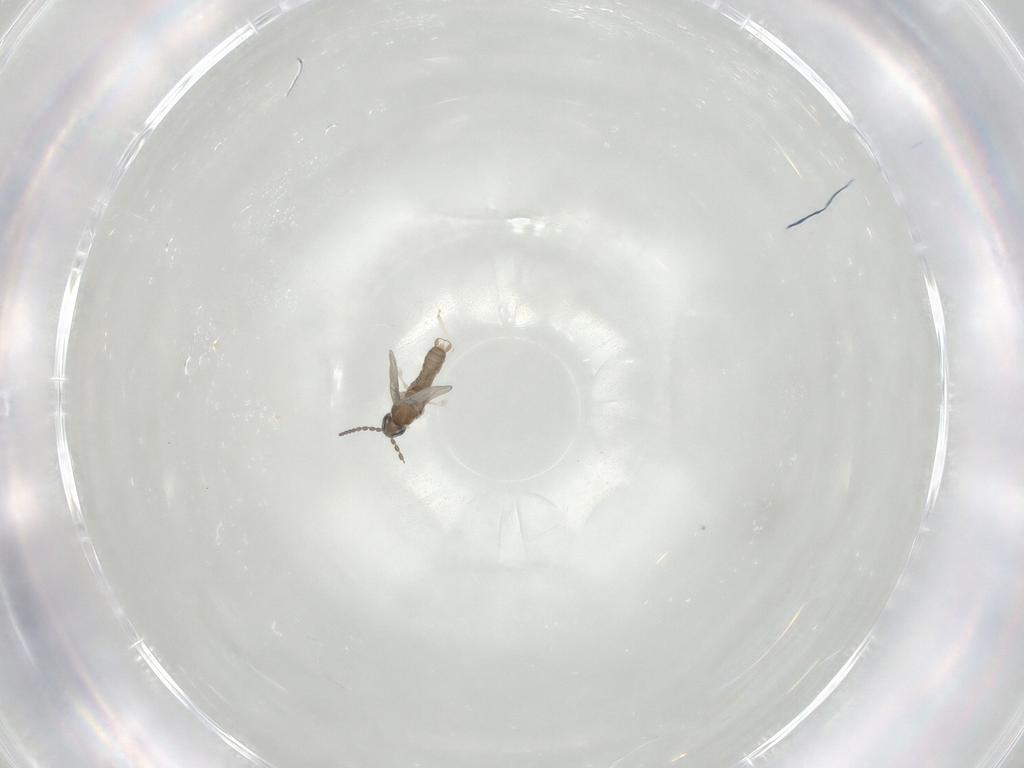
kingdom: Animalia
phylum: Arthropoda
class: Insecta
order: Diptera
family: Cecidomyiidae
